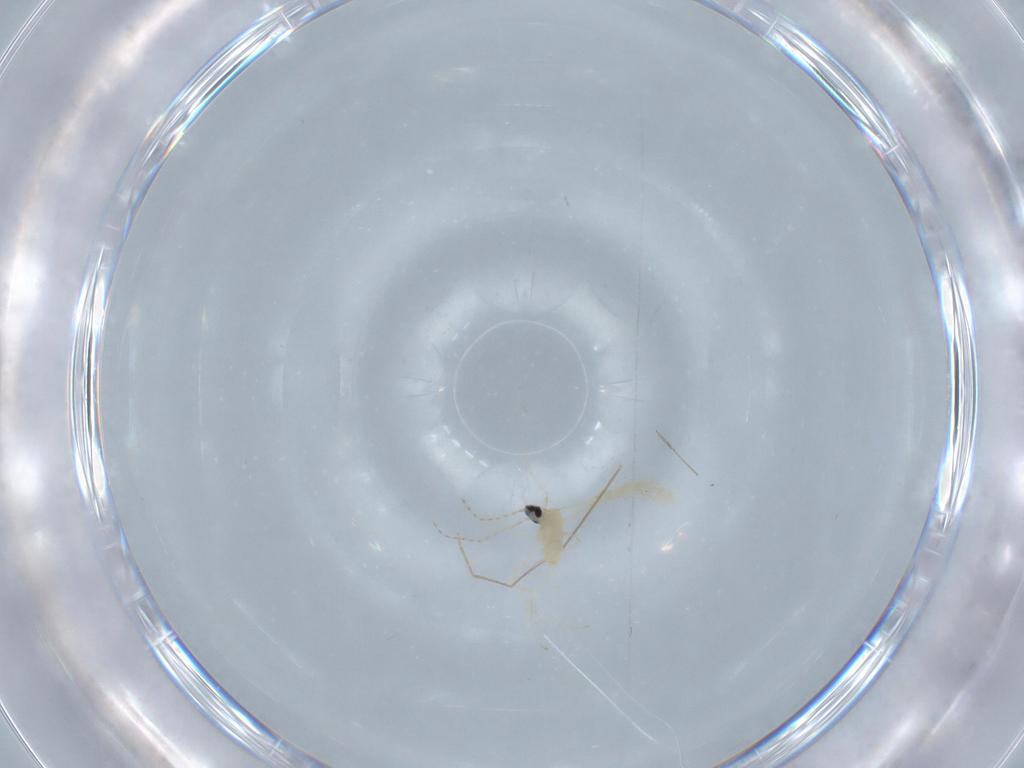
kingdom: Animalia
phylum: Arthropoda
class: Insecta
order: Diptera
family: Cecidomyiidae
